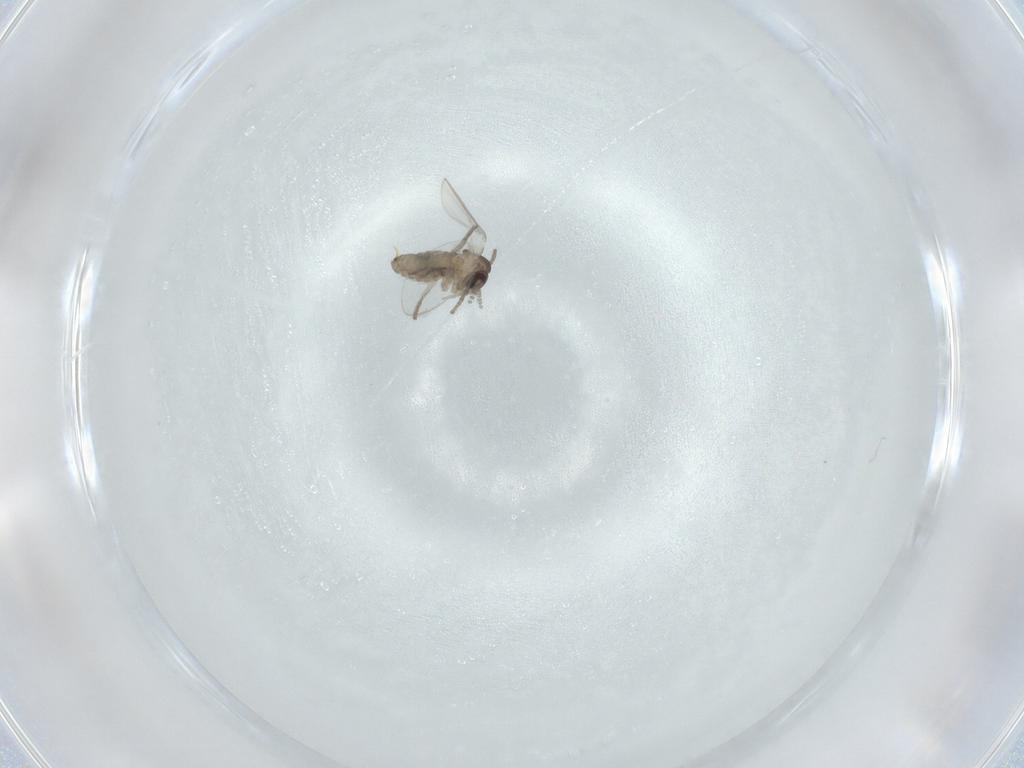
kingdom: Animalia
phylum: Arthropoda
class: Insecta
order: Diptera
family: Psychodidae
